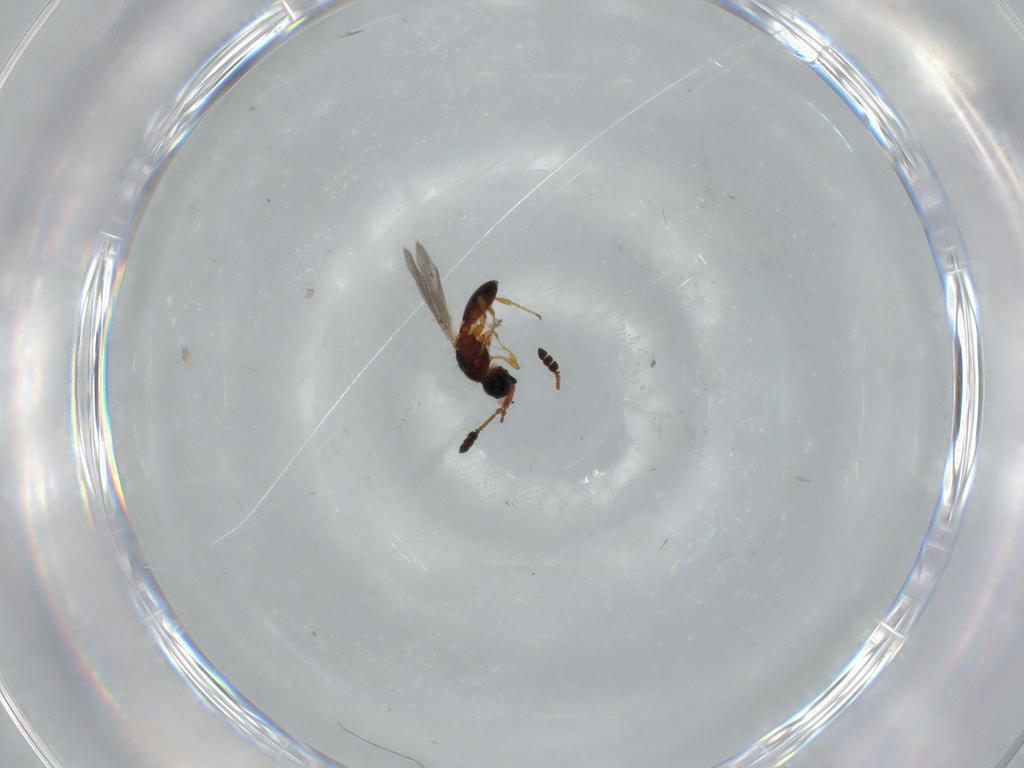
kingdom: Animalia
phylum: Arthropoda
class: Insecta
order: Hymenoptera
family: Diapriidae
